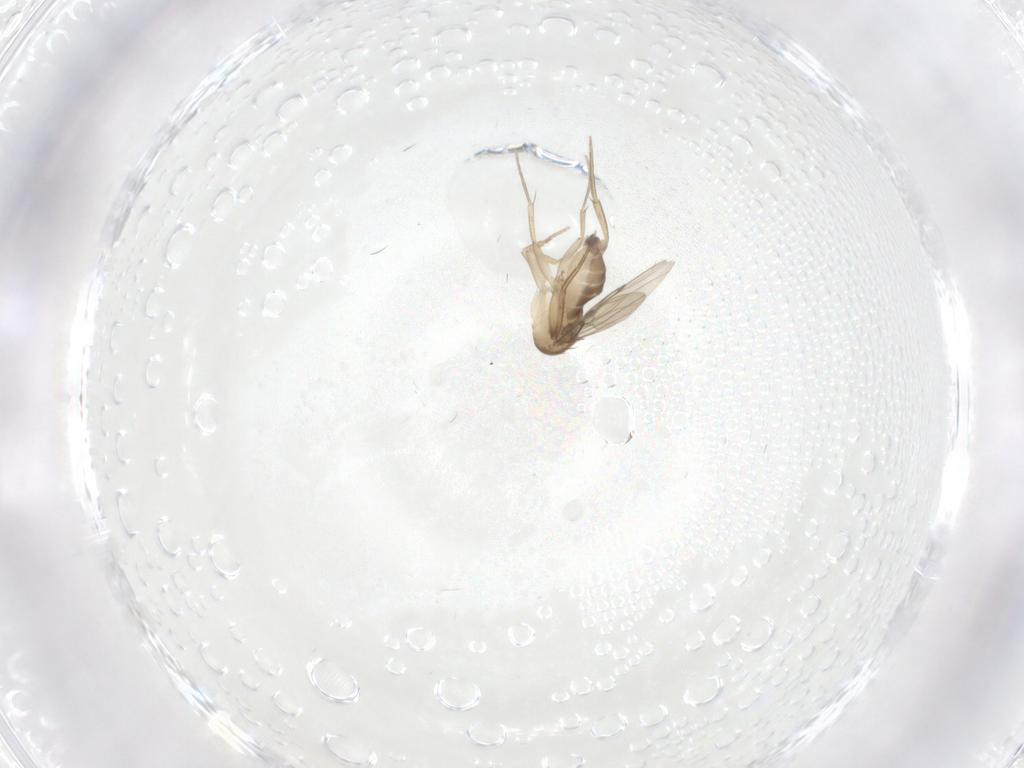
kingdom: Animalia
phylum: Arthropoda
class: Insecta
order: Diptera
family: Phoridae
